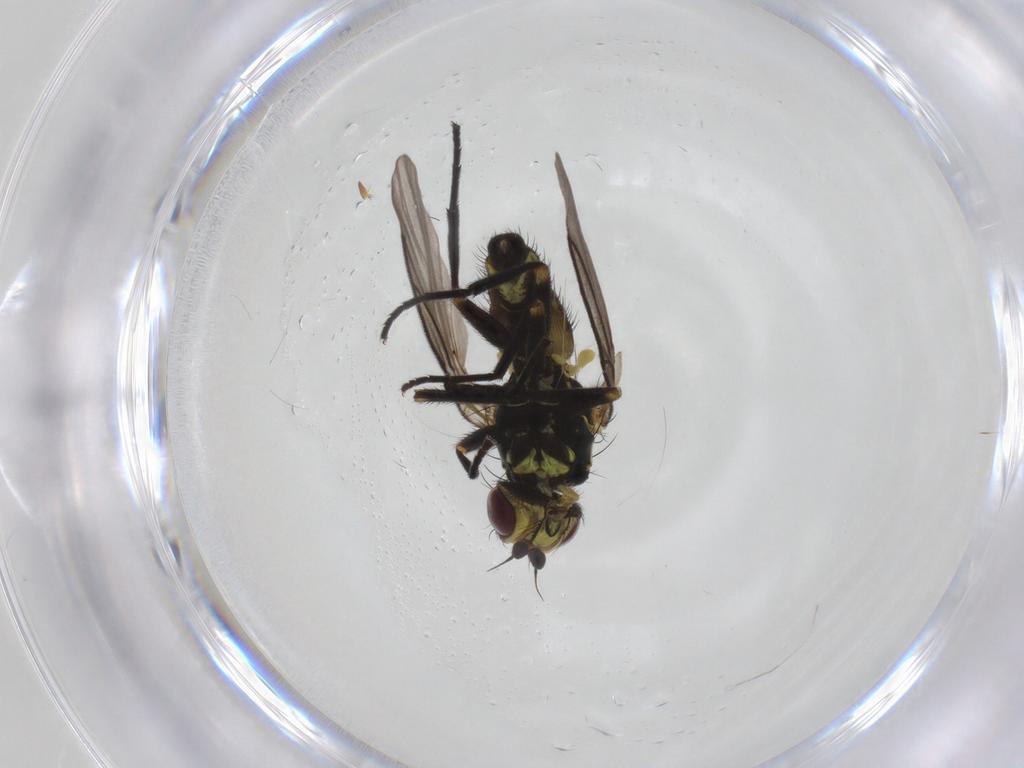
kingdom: Animalia
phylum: Arthropoda
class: Insecta
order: Diptera
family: Agromyzidae
